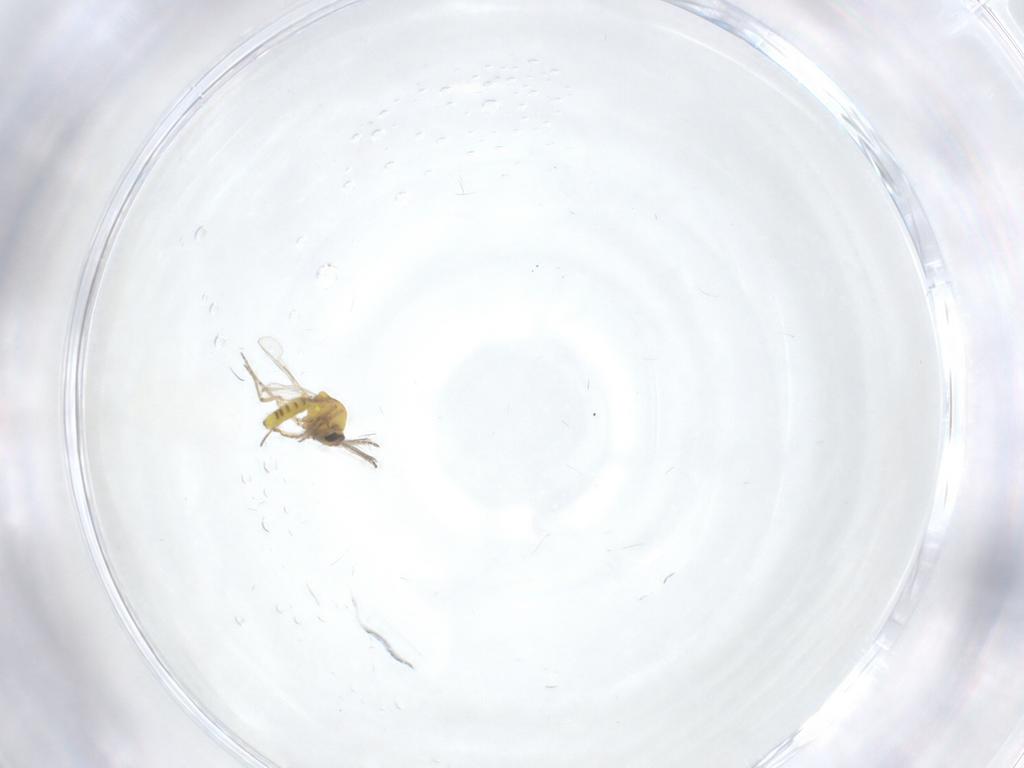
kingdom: Animalia
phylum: Arthropoda
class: Insecta
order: Diptera
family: Ceratopogonidae
